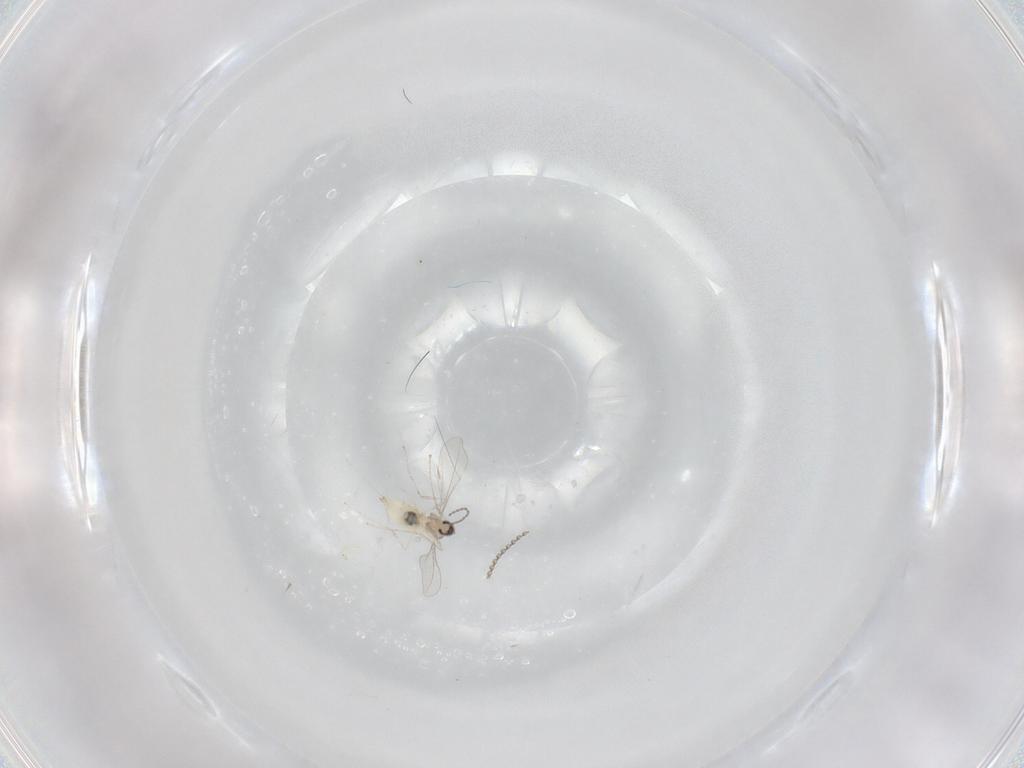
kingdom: Animalia
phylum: Arthropoda
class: Insecta
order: Diptera
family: Cecidomyiidae
